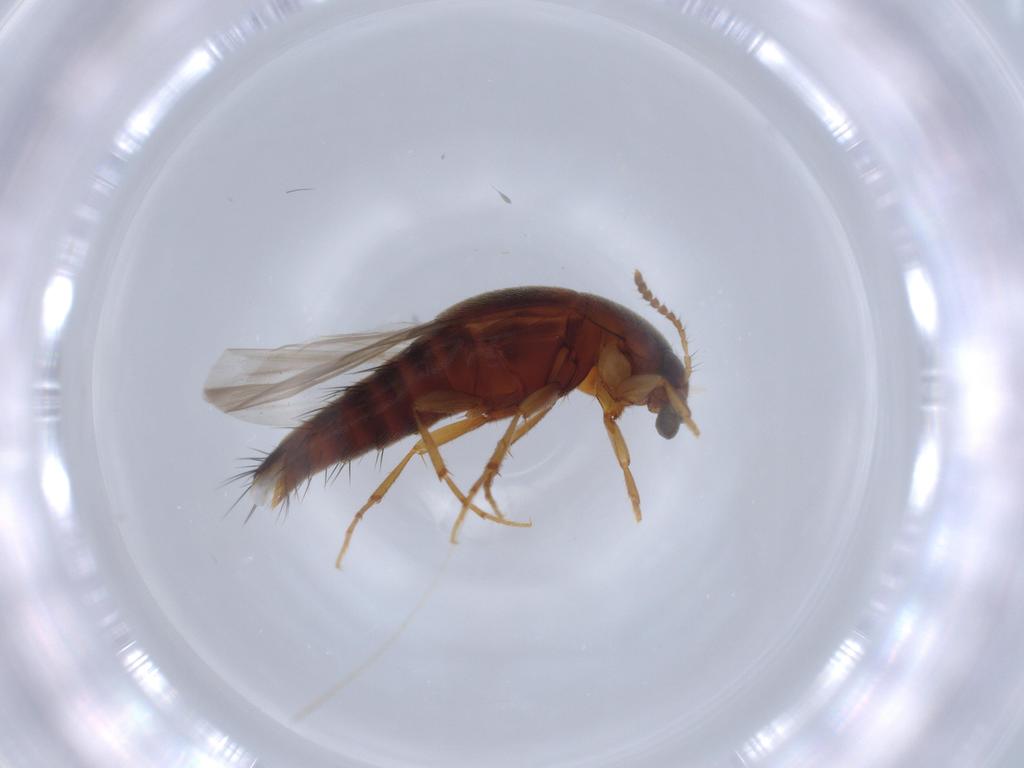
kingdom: Animalia
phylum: Arthropoda
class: Insecta
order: Coleoptera
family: Staphylinidae
